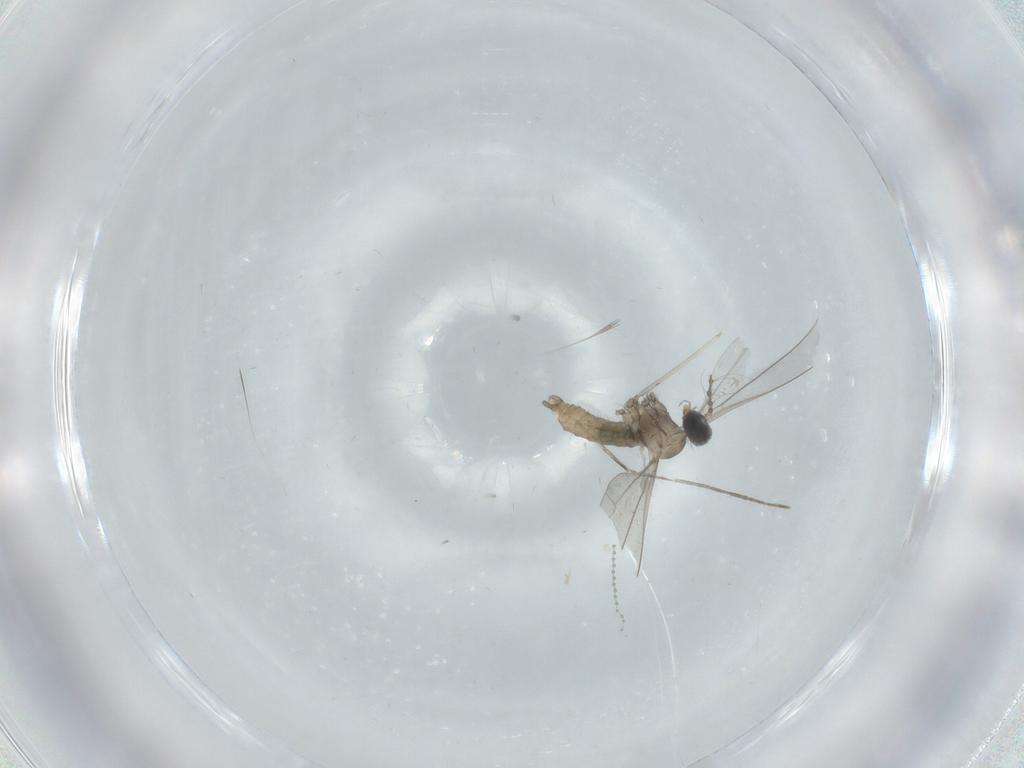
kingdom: Animalia
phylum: Arthropoda
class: Insecta
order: Diptera
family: Cecidomyiidae
